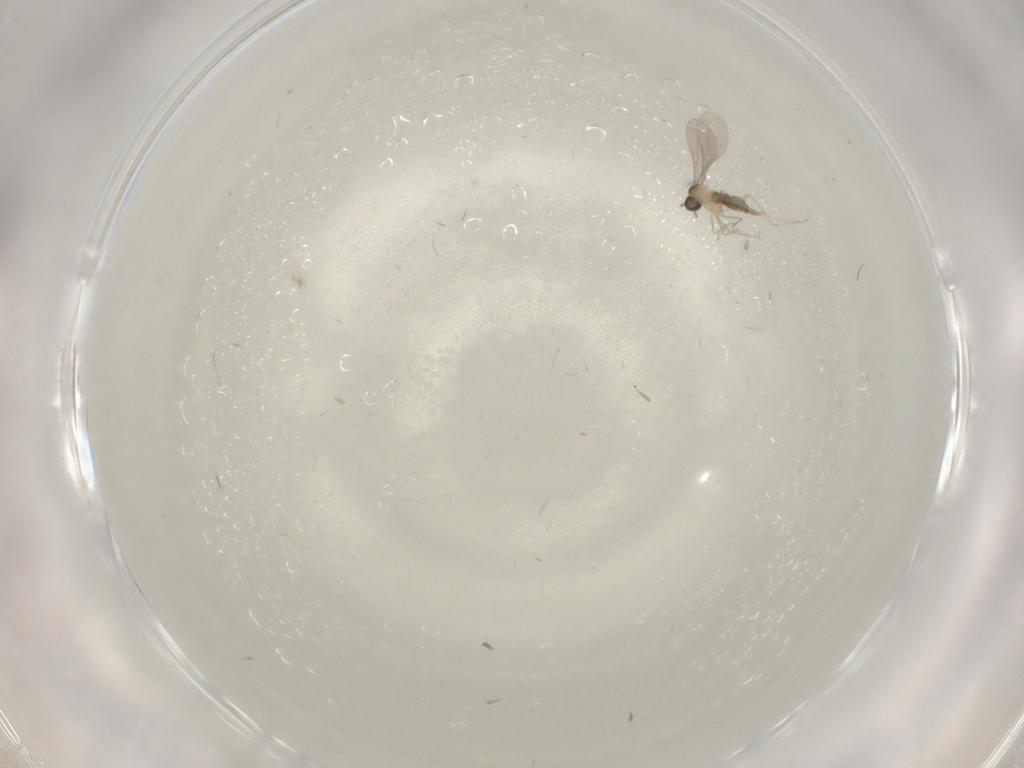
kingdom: Animalia
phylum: Arthropoda
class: Insecta
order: Diptera
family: Cecidomyiidae
